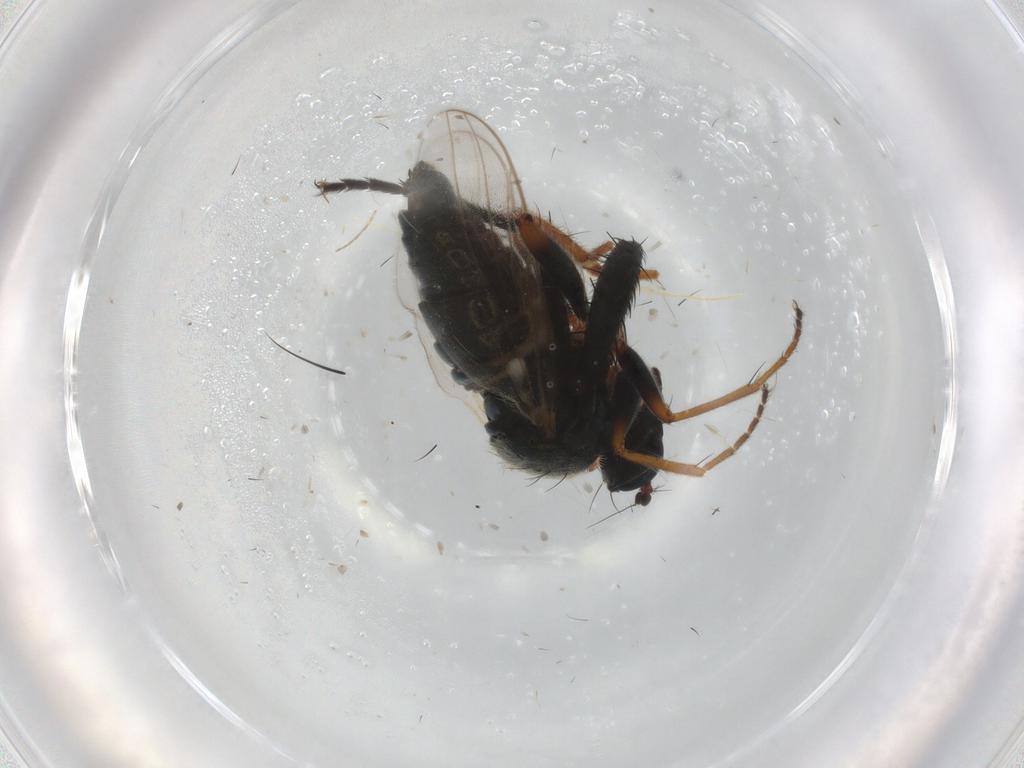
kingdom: Animalia
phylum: Arthropoda
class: Insecta
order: Diptera
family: Hybotidae
